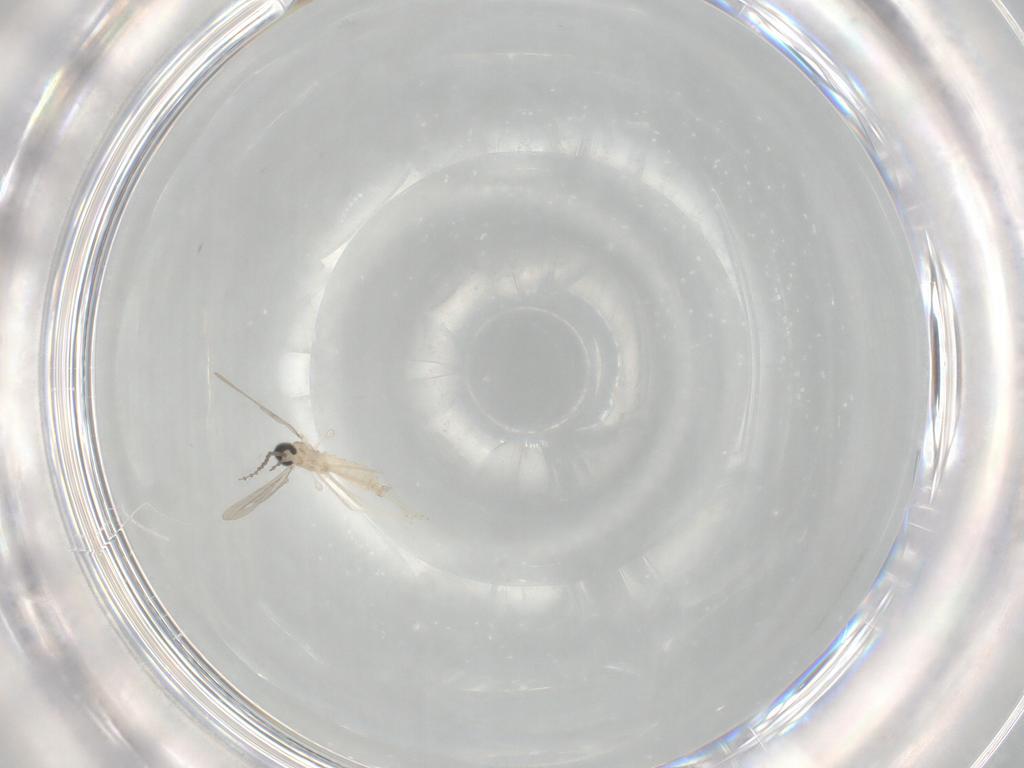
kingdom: Animalia
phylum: Arthropoda
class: Insecta
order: Diptera
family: Cecidomyiidae
